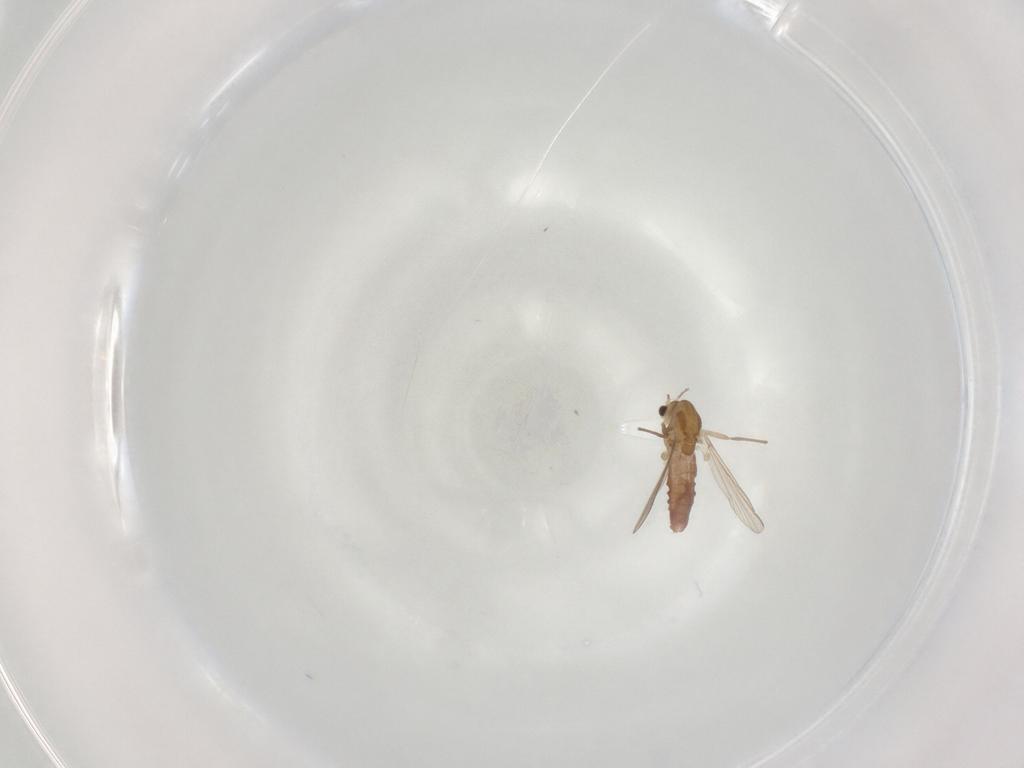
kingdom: Animalia
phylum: Arthropoda
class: Insecta
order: Diptera
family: Chironomidae
